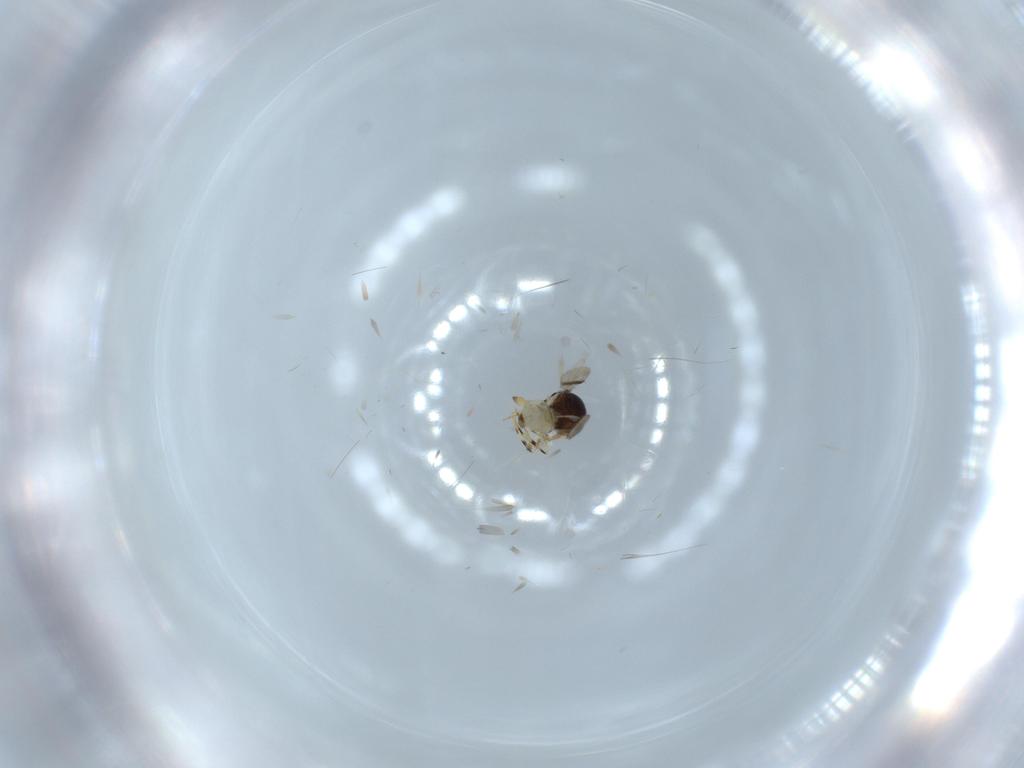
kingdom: Animalia
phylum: Arthropoda
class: Insecta
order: Hymenoptera
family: Scelionidae
